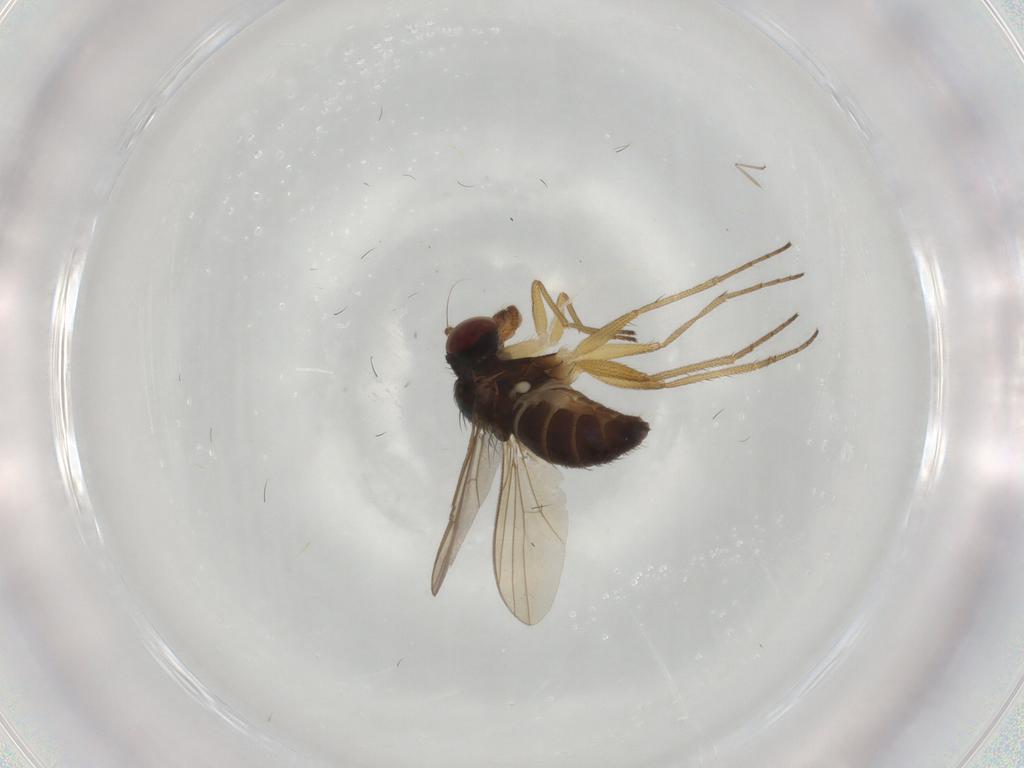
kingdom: Animalia
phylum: Arthropoda
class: Insecta
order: Diptera
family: Dolichopodidae
